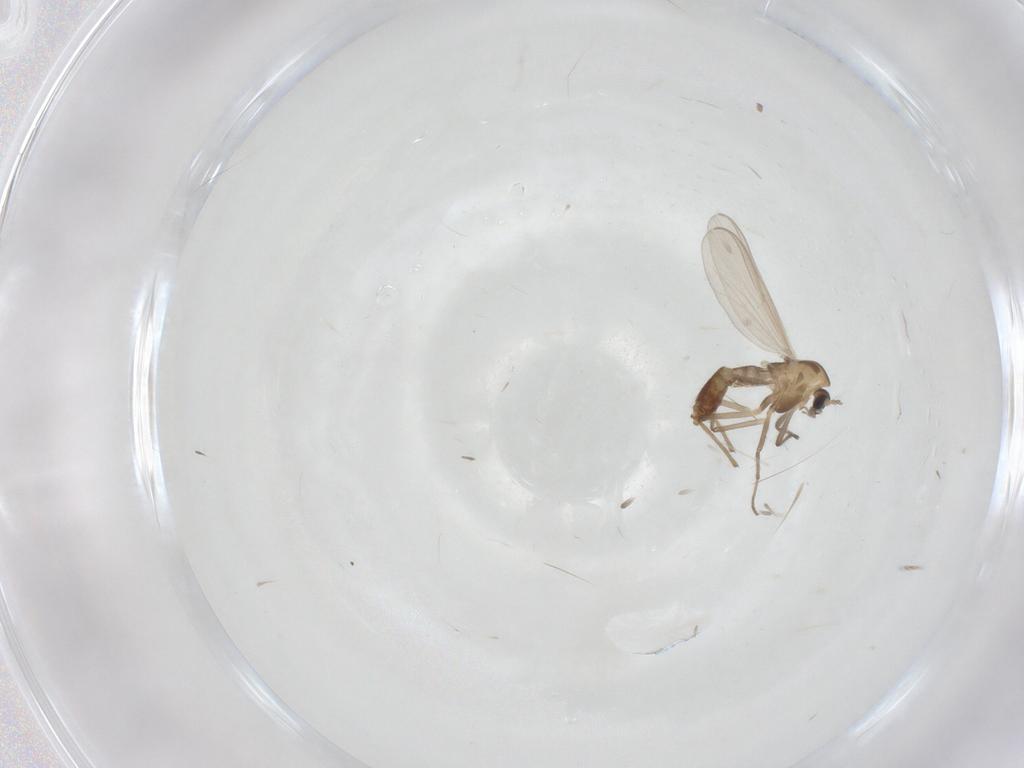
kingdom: Animalia
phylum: Arthropoda
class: Insecta
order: Diptera
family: Chironomidae
